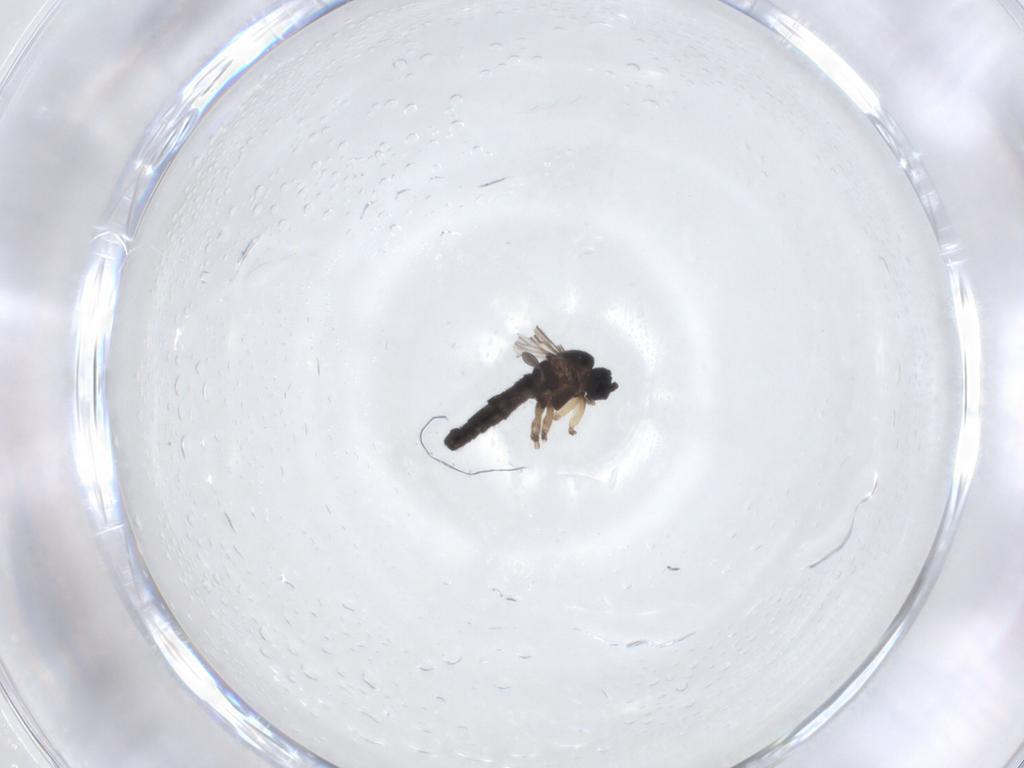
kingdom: Animalia
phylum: Arthropoda
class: Insecta
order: Diptera
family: Sciaridae
